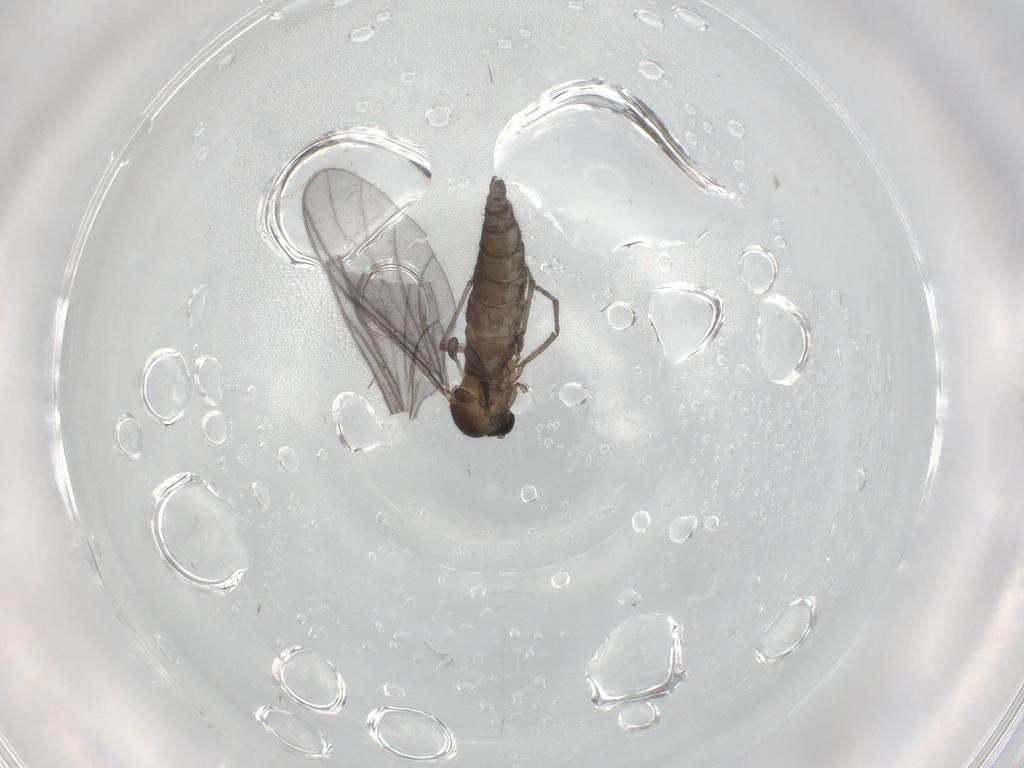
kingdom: Animalia
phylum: Arthropoda
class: Insecta
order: Diptera
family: Sciaridae
